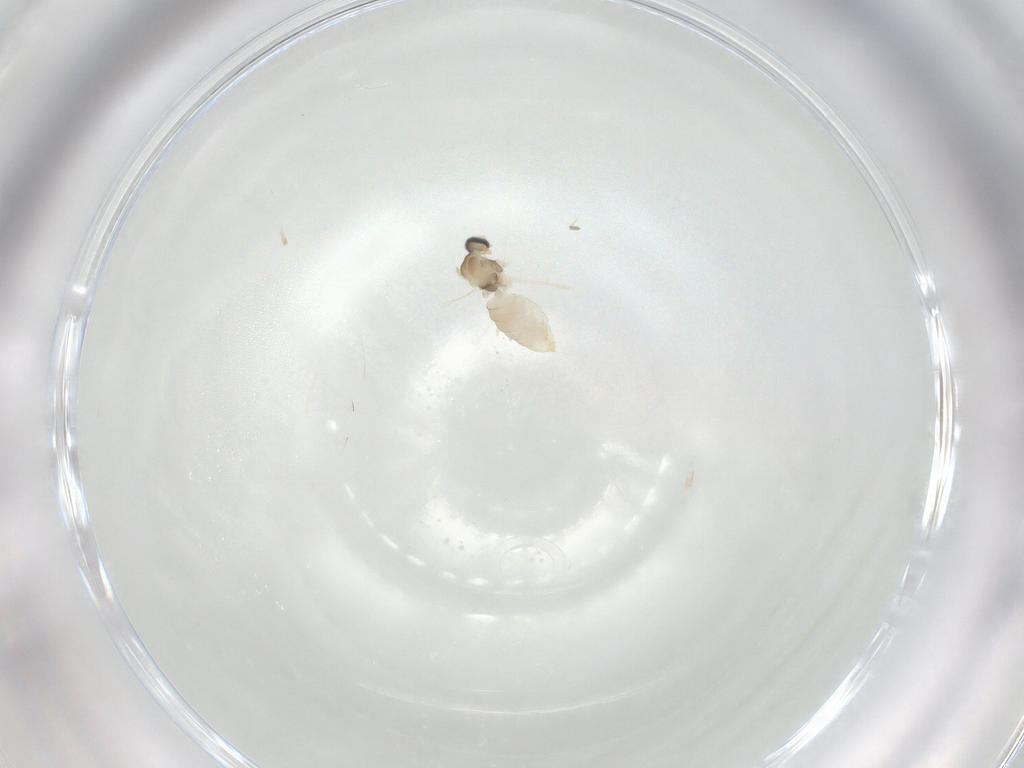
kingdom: Animalia
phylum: Arthropoda
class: Insecta
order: Diptera
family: Cecidomyiidae
